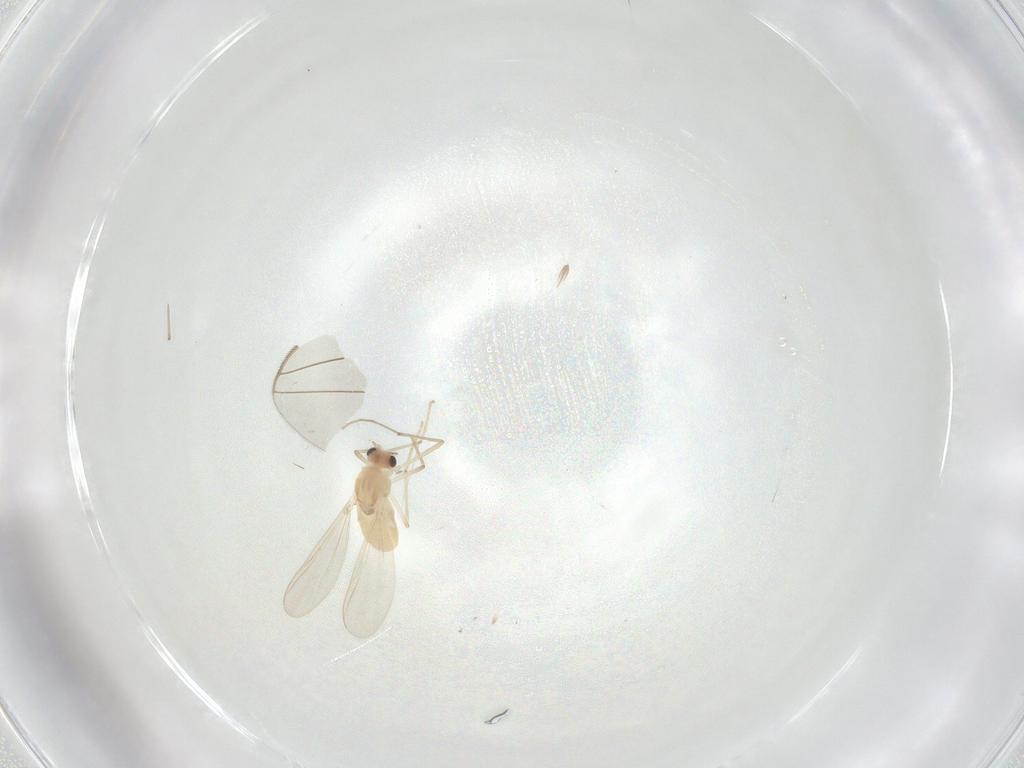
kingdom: Animalia
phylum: Arthropoda
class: Insecta
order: Diptera
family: Chironomidae
